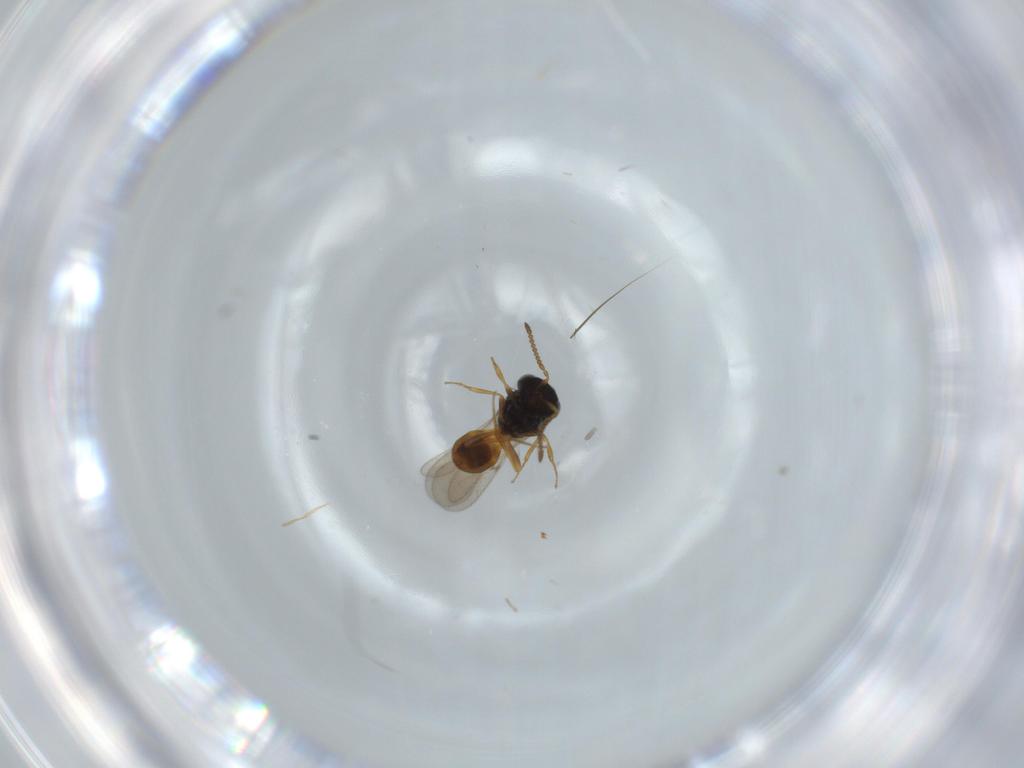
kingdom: Animalia
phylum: Arthropoda
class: Insecta
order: Hymenoptera
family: Scelionidae
